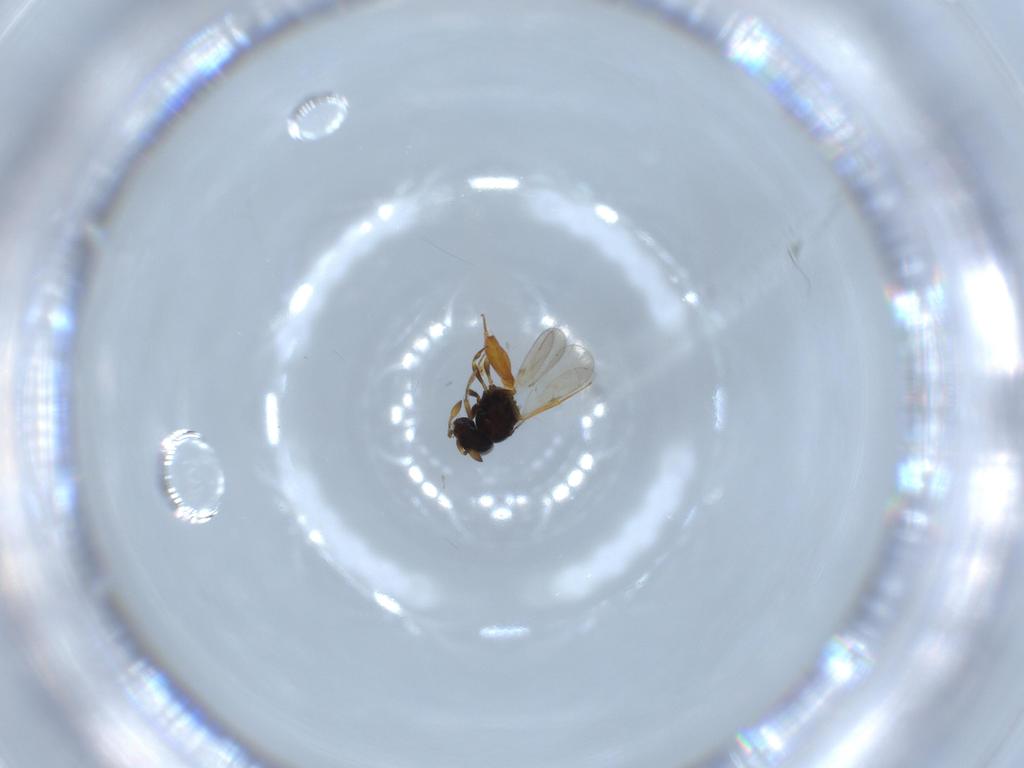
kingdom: Animalia
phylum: Arthropoda
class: Insecta
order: Hymenoptera
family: Scelionidae
